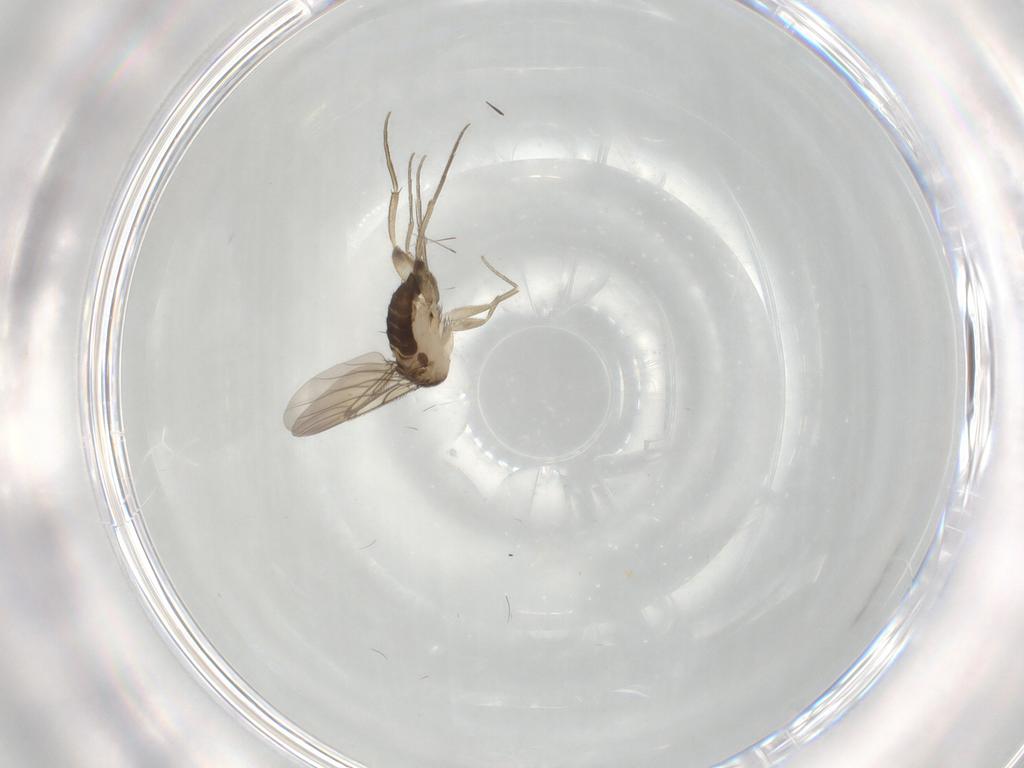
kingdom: Animalia
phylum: Arthropoda
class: Insecta
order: Diptera
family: Phoridae
